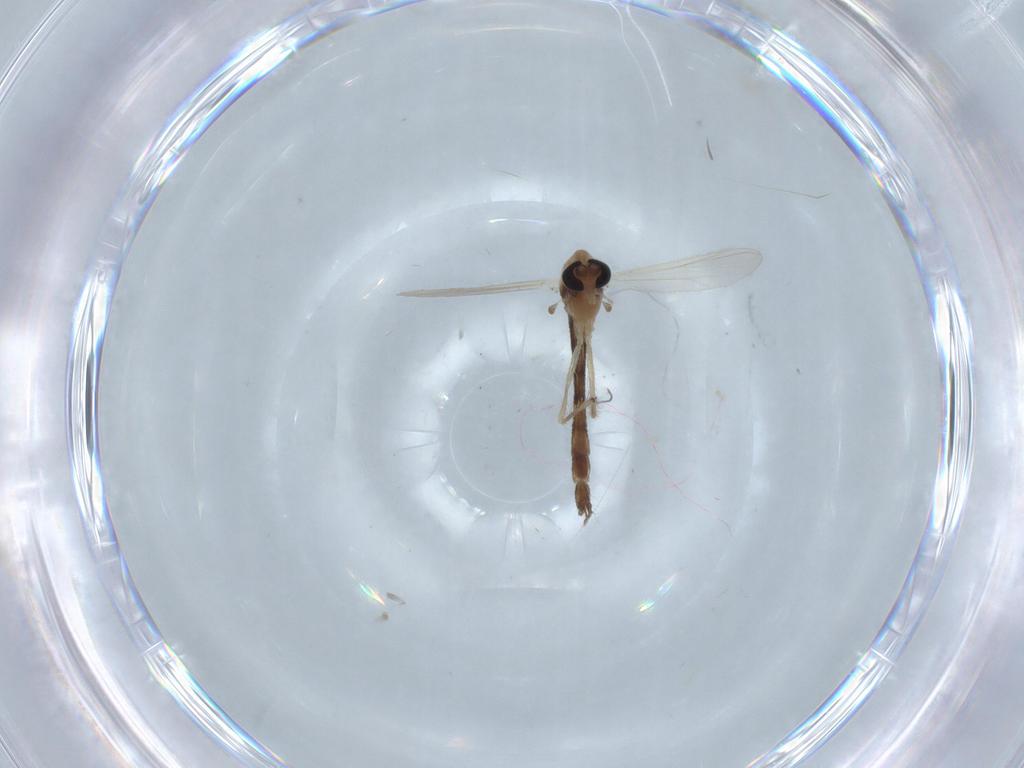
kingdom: Animalia
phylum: Arthropoda
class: Insecta
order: Diptera
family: Chironomidae
